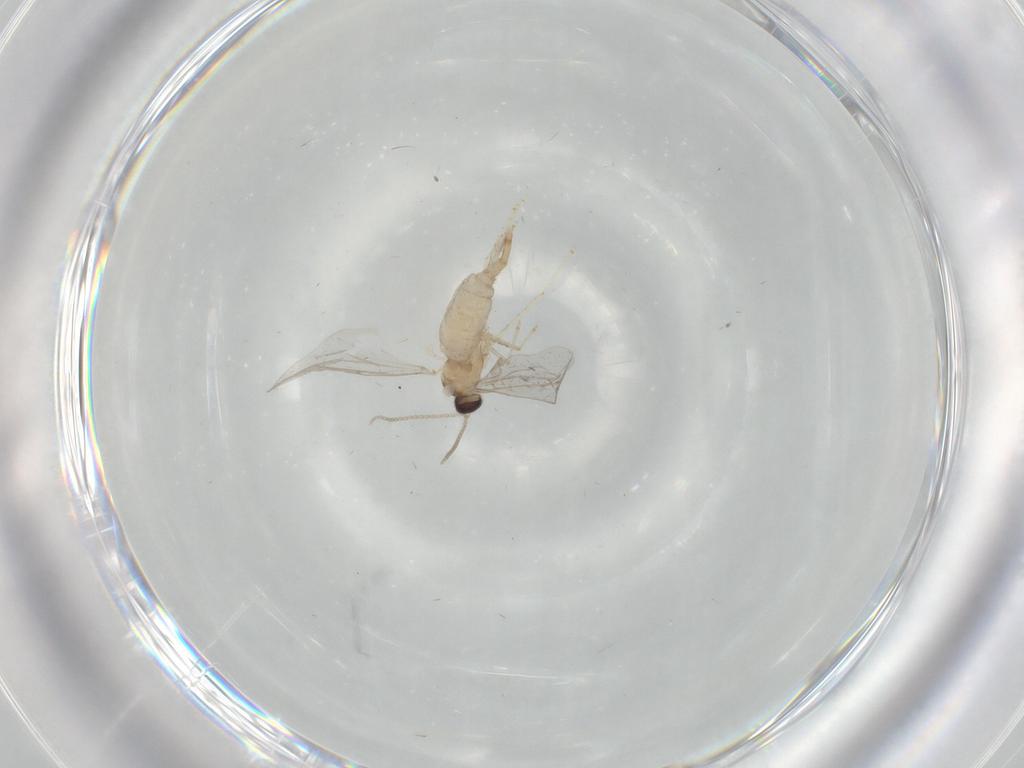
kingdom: Animalia
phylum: Arthropoda
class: Insecta
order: Diptera
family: Cecidomyiidae
